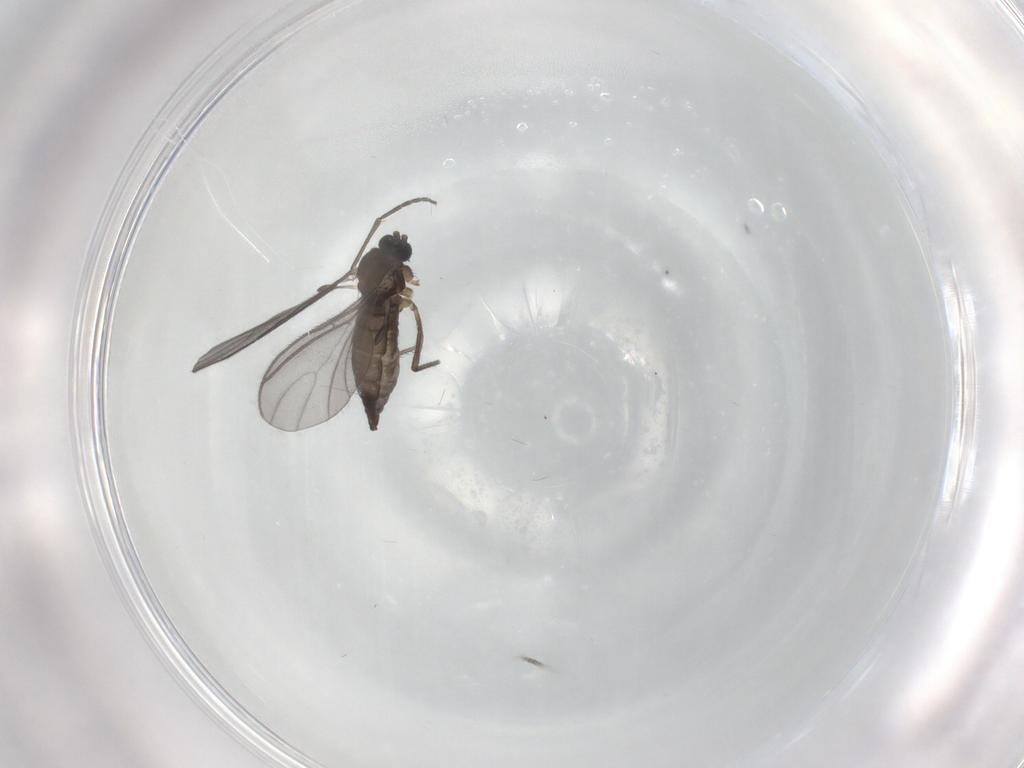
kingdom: Animalia
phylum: Arthropoda
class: Insecta
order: Diptera
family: Sciaridae
